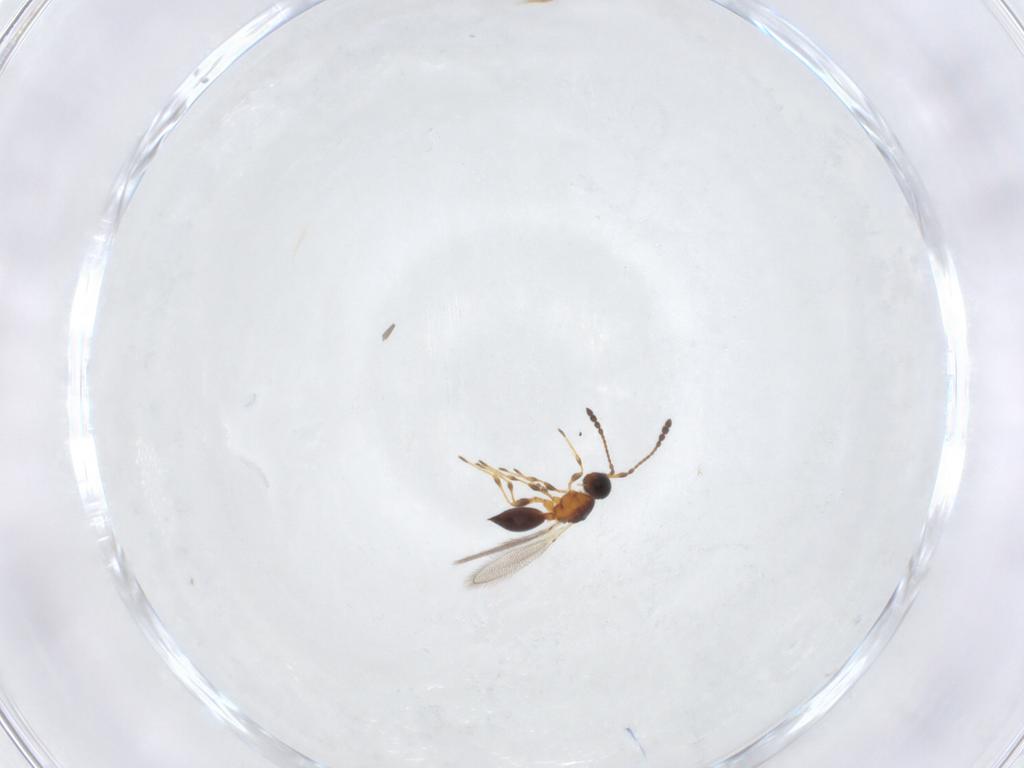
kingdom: Animalia
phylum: Arthropoda
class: Insecta
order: Hymenoptera
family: Diapriidae
